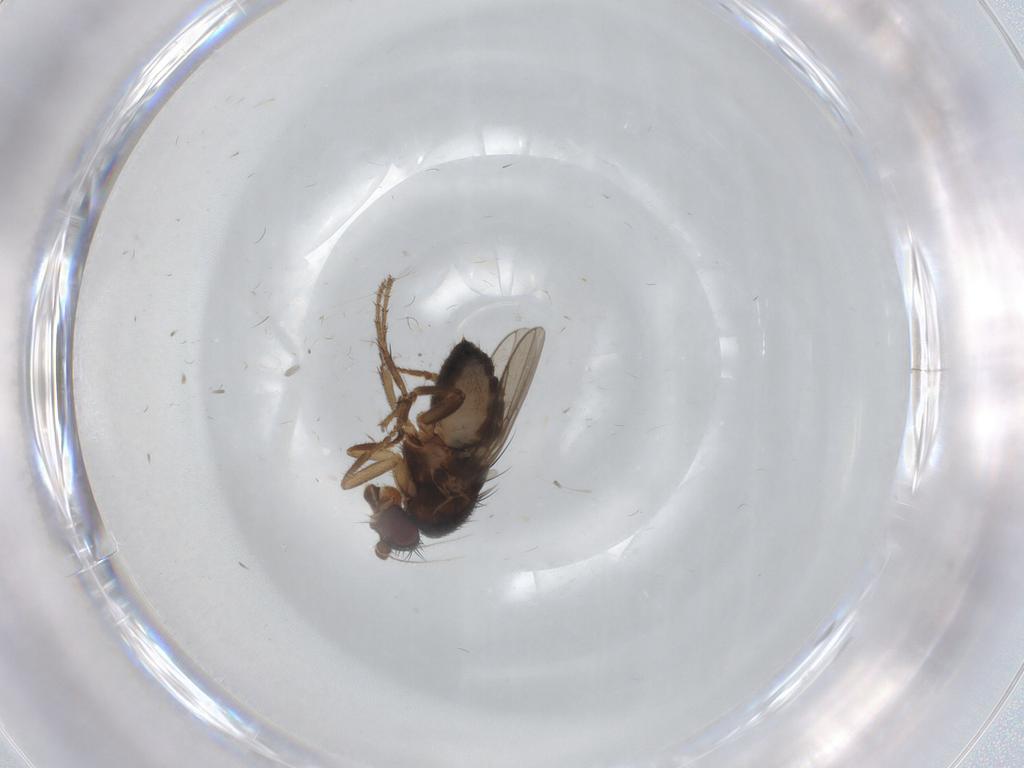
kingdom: Animalia
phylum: Arthropoda
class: Insecta
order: Diptera
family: Sphaeroceridae
